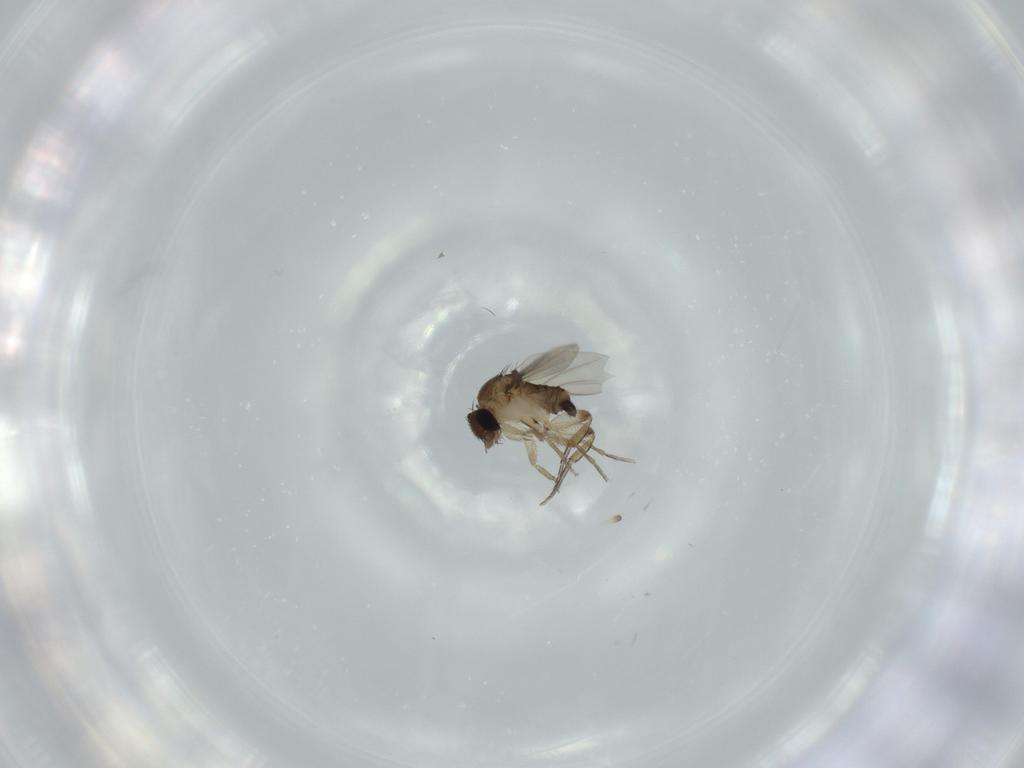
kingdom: Animalia
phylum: Arthropoda
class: Insecta
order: Diptera
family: Phoridae
